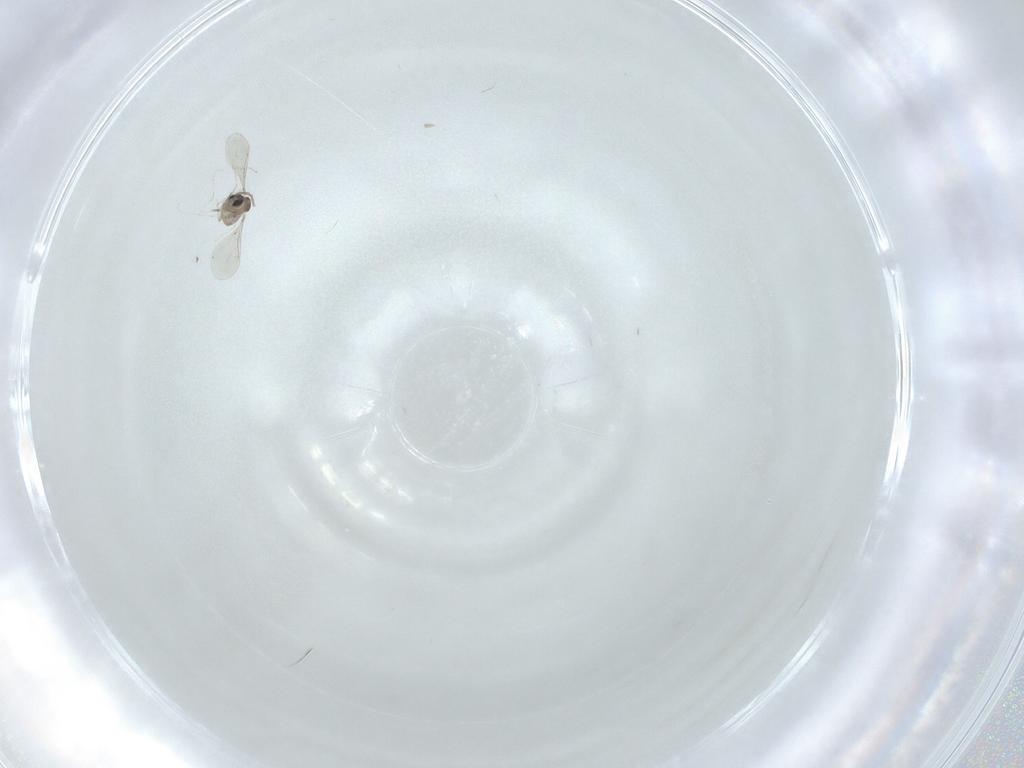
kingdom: Animalia
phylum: Arthropoda
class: Insecta
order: Diptera
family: Cecidomyiidae
